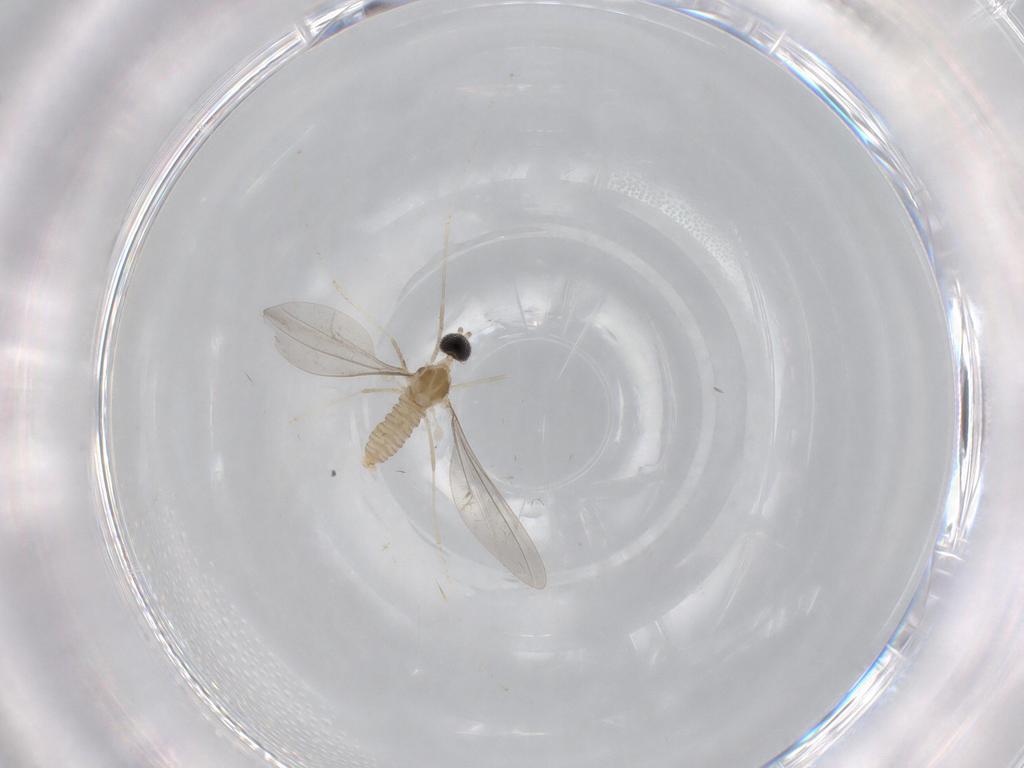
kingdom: Animalia
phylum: Arthropoda
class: Insecta
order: Diptera
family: Cecidomyiidae
